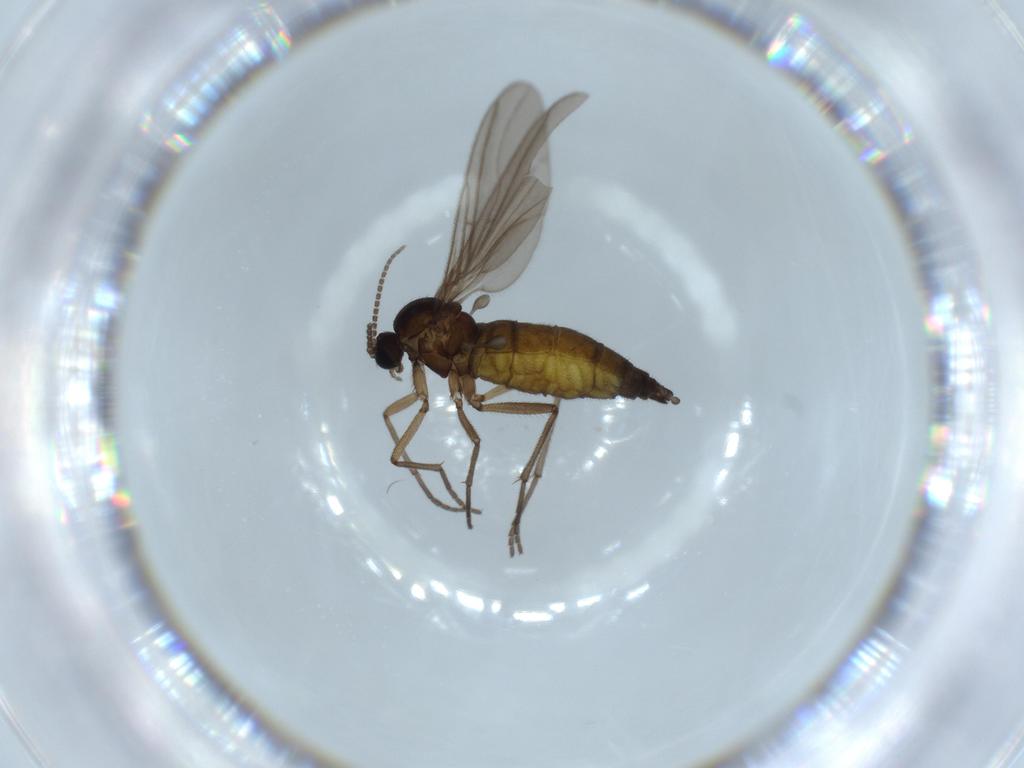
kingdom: Animalia
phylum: Arthropoda
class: Insecta
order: Diptera
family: Sciaridae
